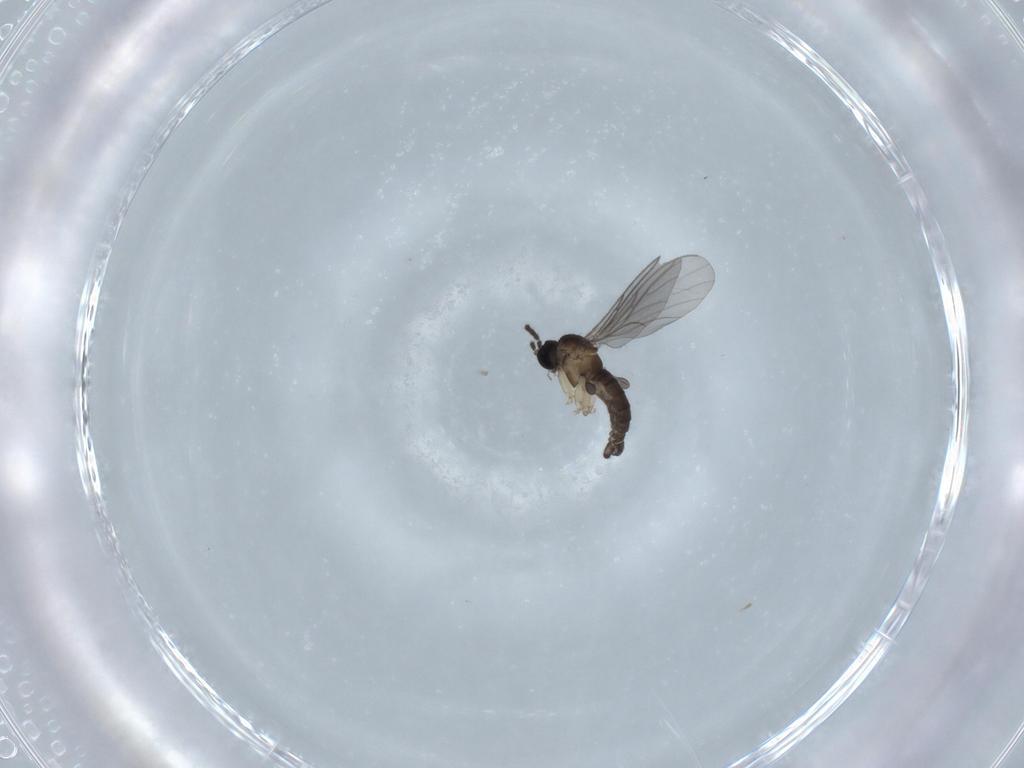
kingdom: Animalia
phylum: Arthropoda
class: Insecta
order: Diptera
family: Sciaridae
